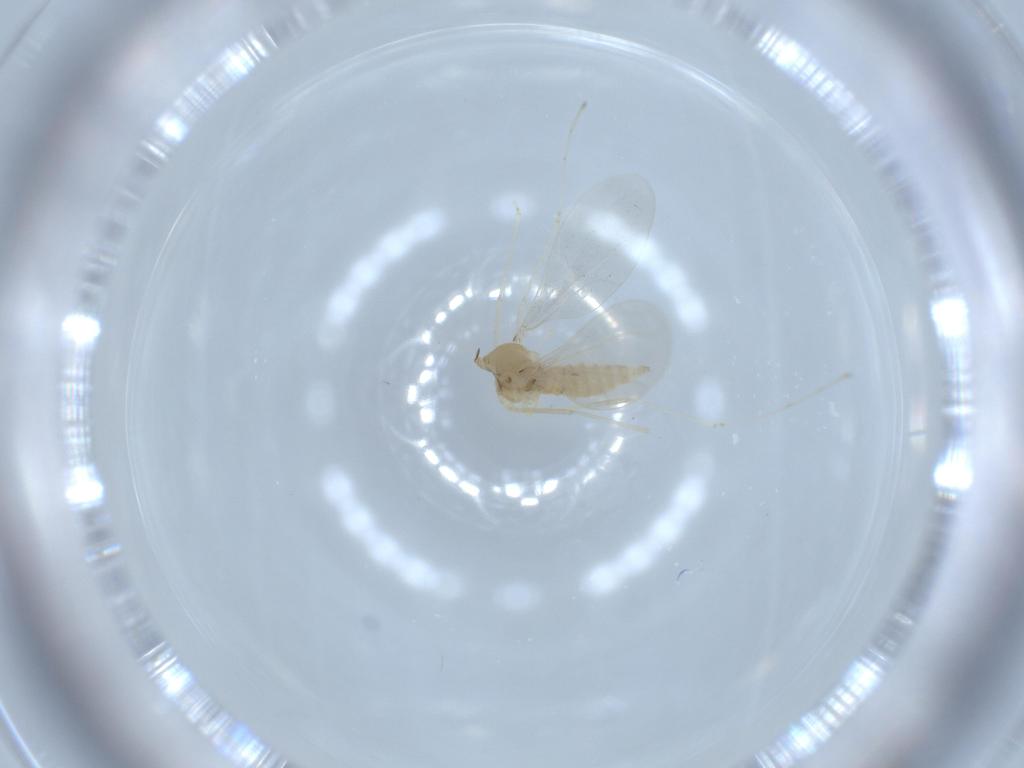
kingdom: Animalia
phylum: Arthropoda
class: Insecta
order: Diptera
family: Cecidomyiidae
